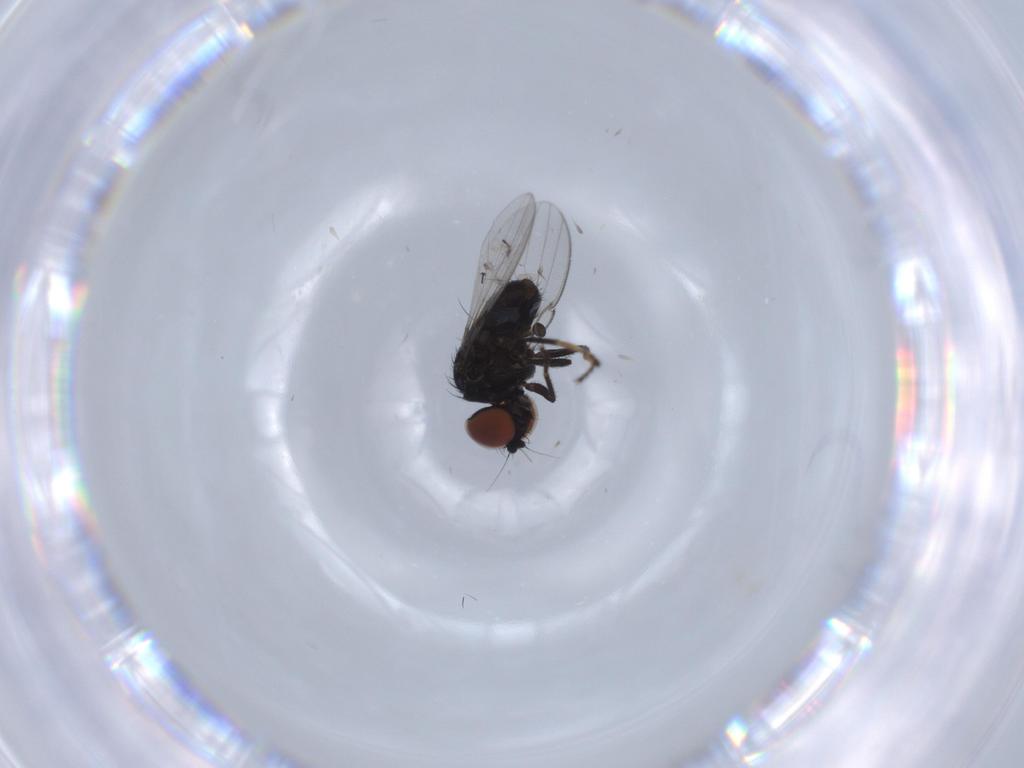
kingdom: Animalia
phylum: Arthropoda
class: Insecta
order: Diptera
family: Milichiidae
